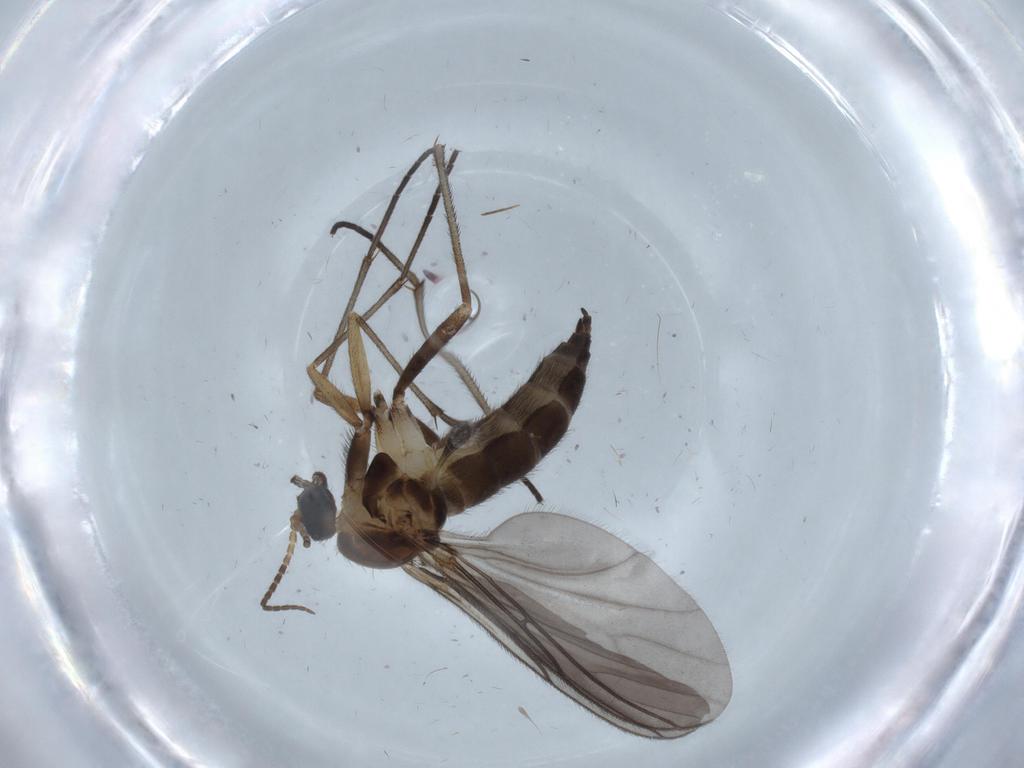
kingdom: Animalia
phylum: Arthropoda
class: Insecta
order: Diptera
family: Sciaridae
